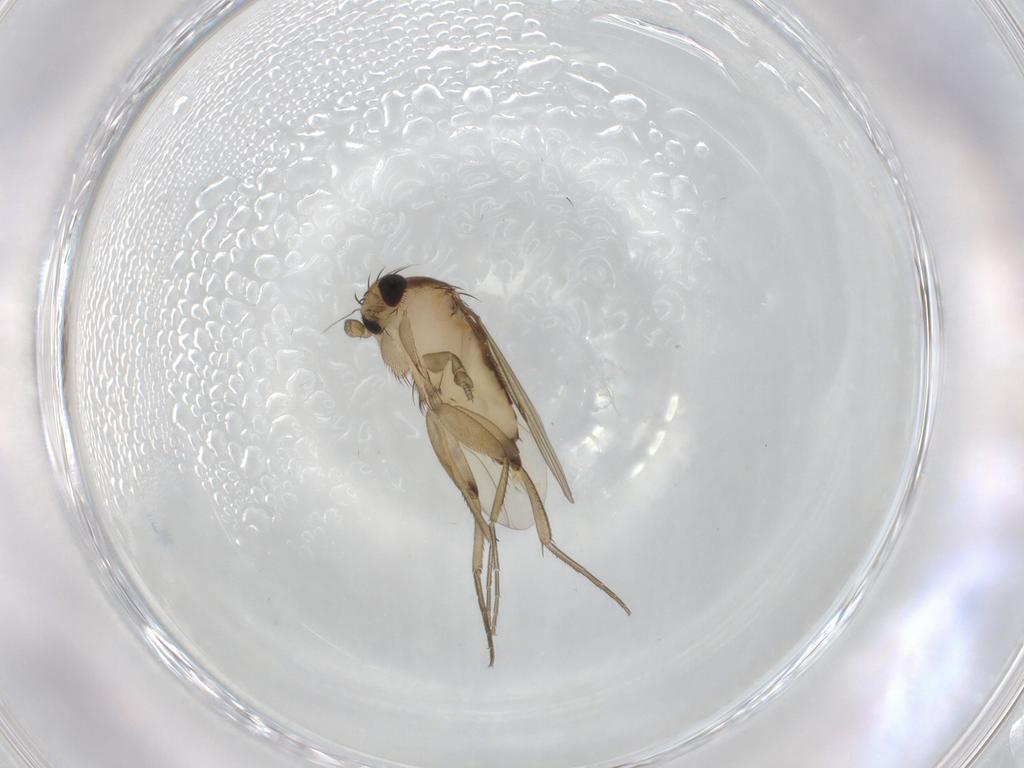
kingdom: Animalia
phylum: Arthropoda
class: Insecta
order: Diptera
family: Phoridae
